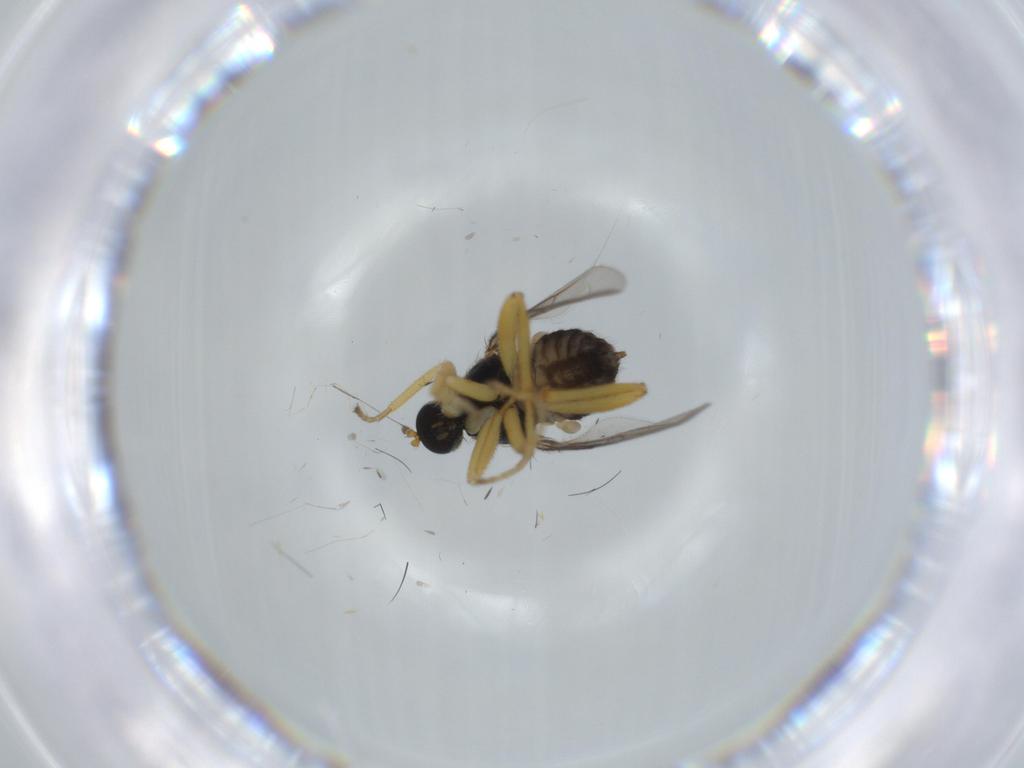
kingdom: Animalia
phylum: Arthropoda
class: Insecta
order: Diptera
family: Hybotidae
